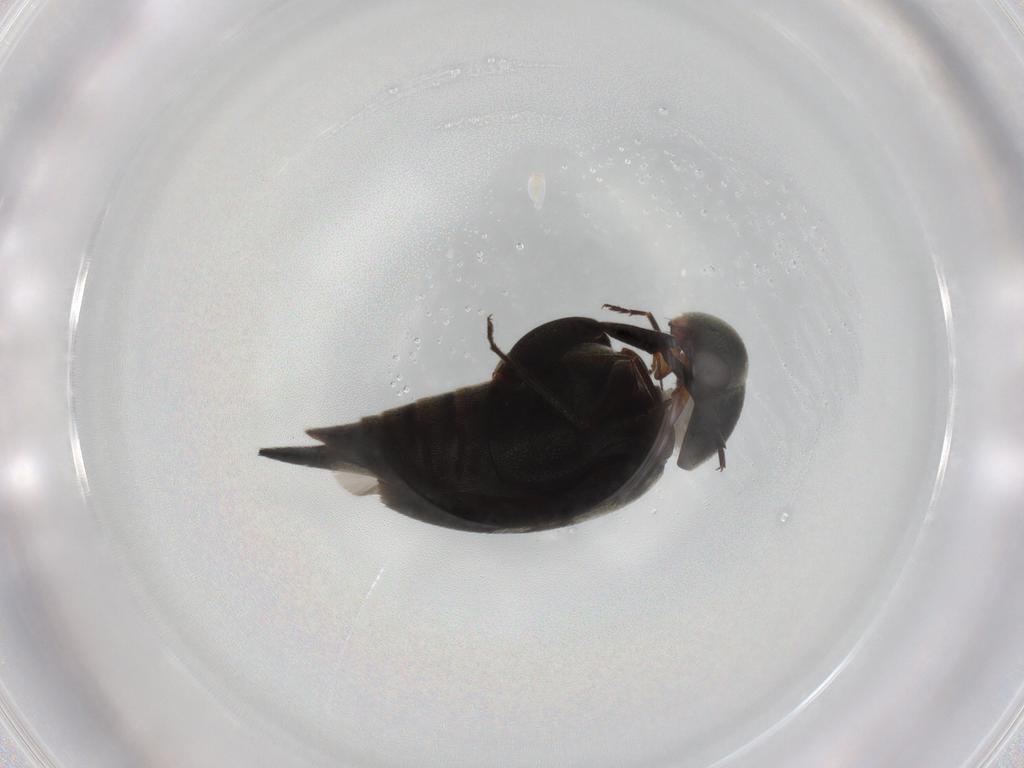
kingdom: Animalia
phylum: Arthropoda
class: Insecta
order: Coleoptera
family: Mordellidae
